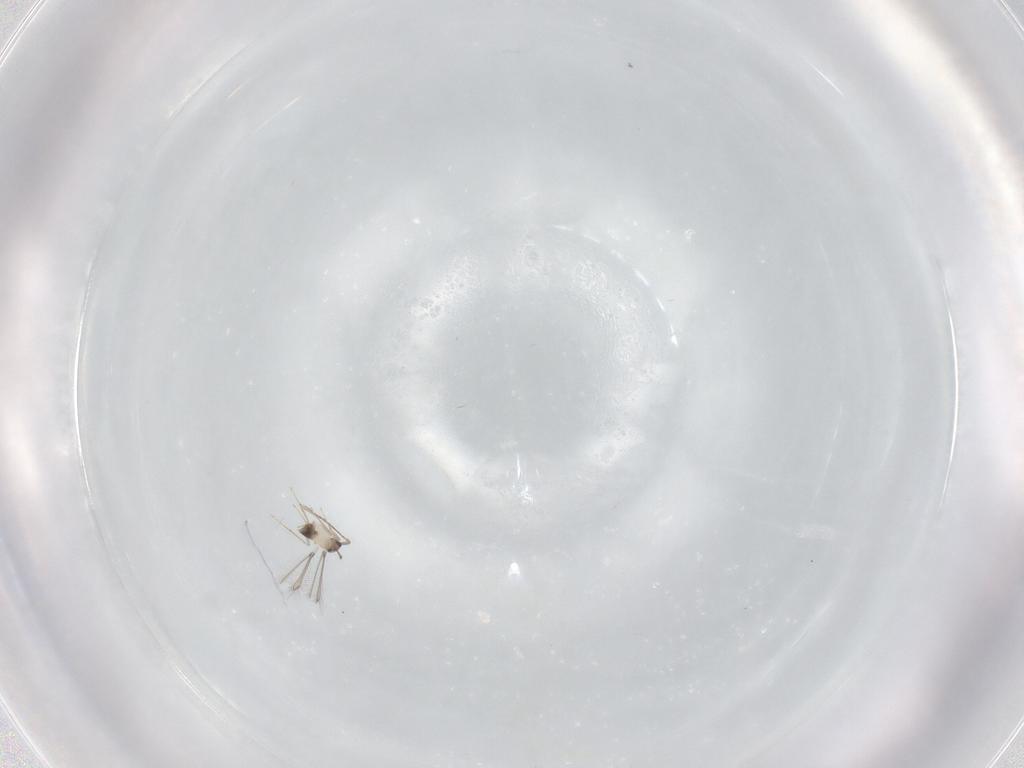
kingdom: Animalia
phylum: Arthropoda
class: Insecta
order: Hymenoptera
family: Mymaridae
